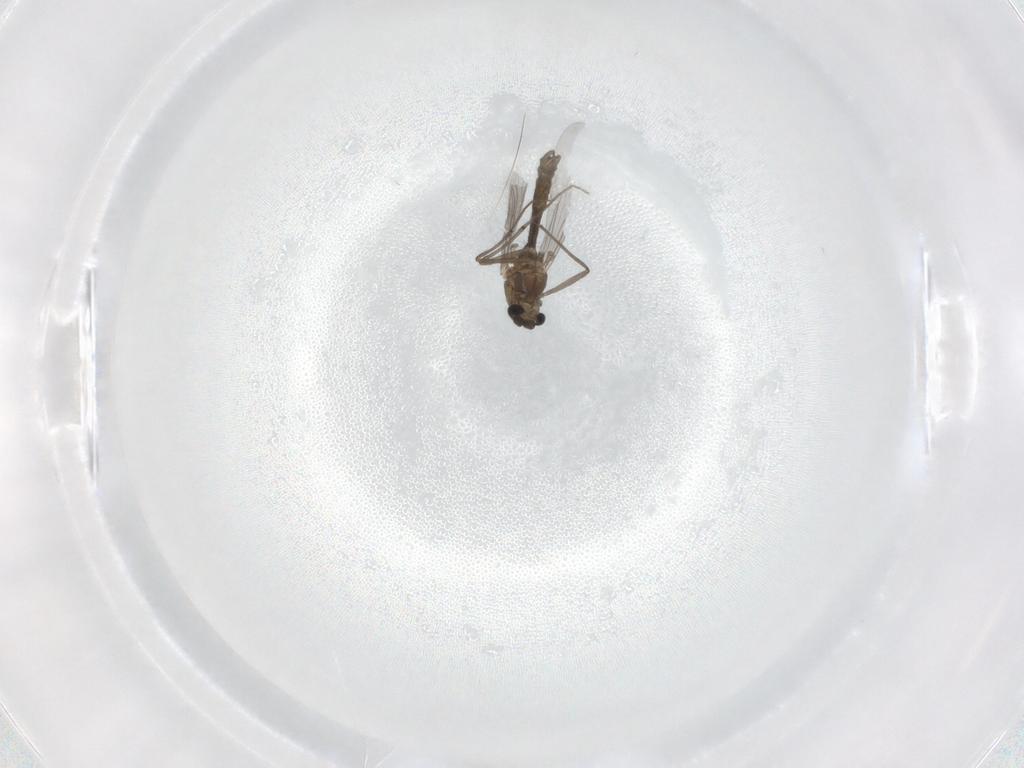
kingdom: Animalia
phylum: Arthropoda
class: Insecta
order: Diptera
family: Chironomidae
